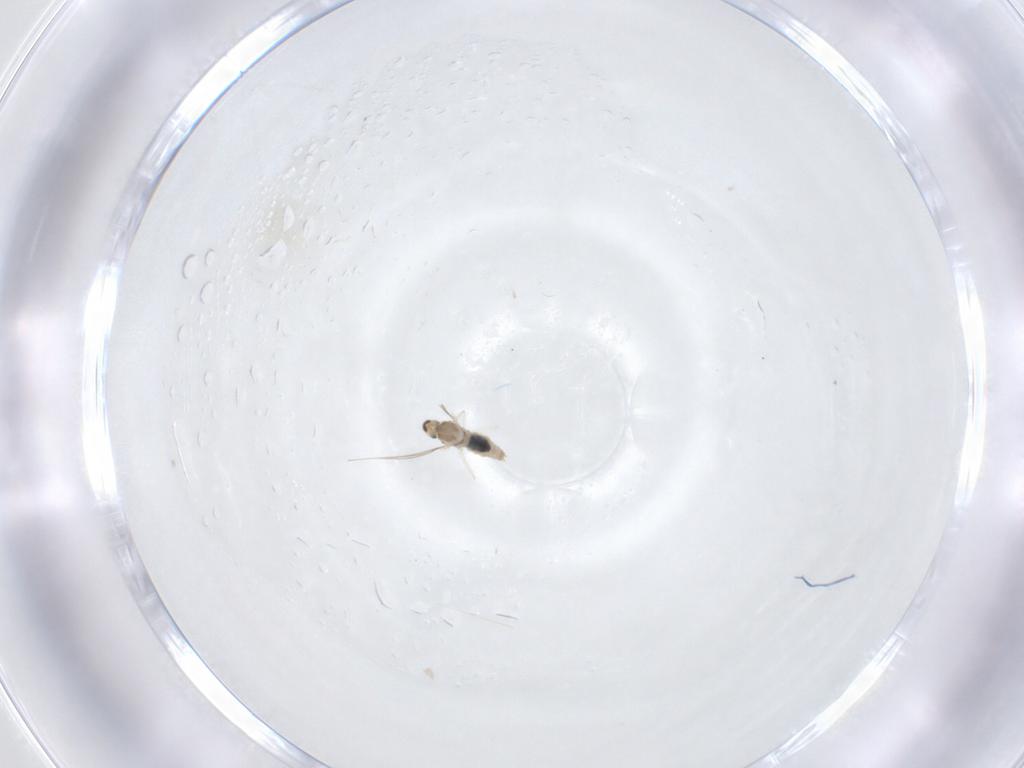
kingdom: Animalia
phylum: Arthropoda
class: Insecta
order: Diptera
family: Cecidomyiidae
